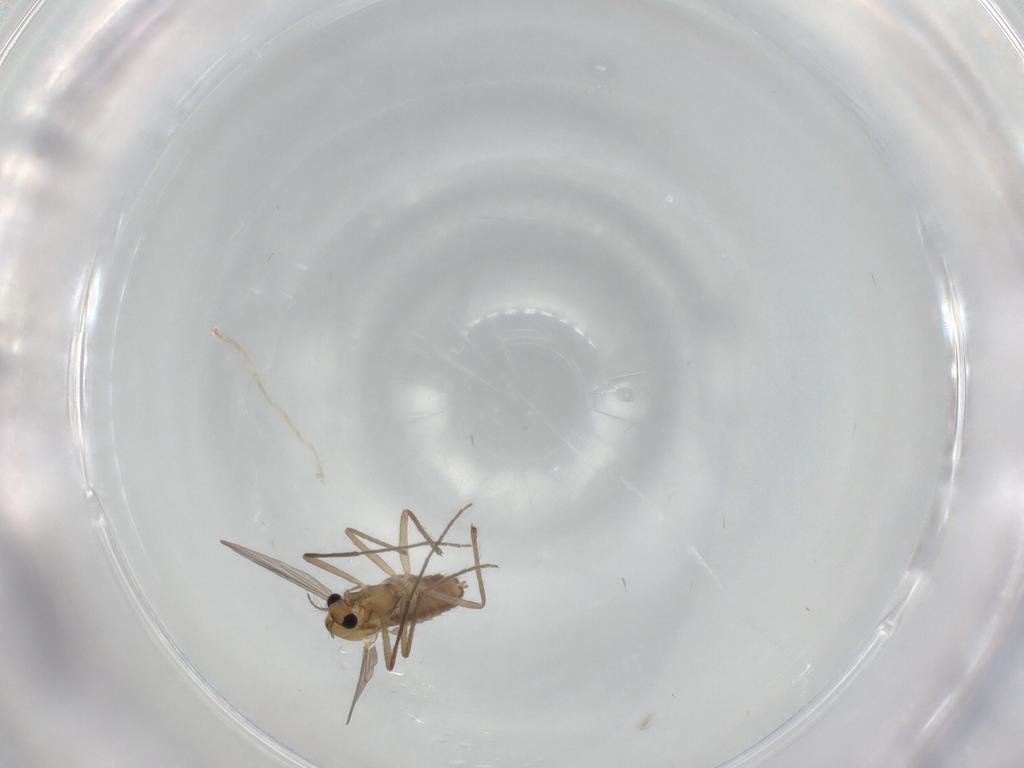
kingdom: Animalia
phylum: Arthropoda
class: Insecta
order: Diptera
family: Chironomidae
